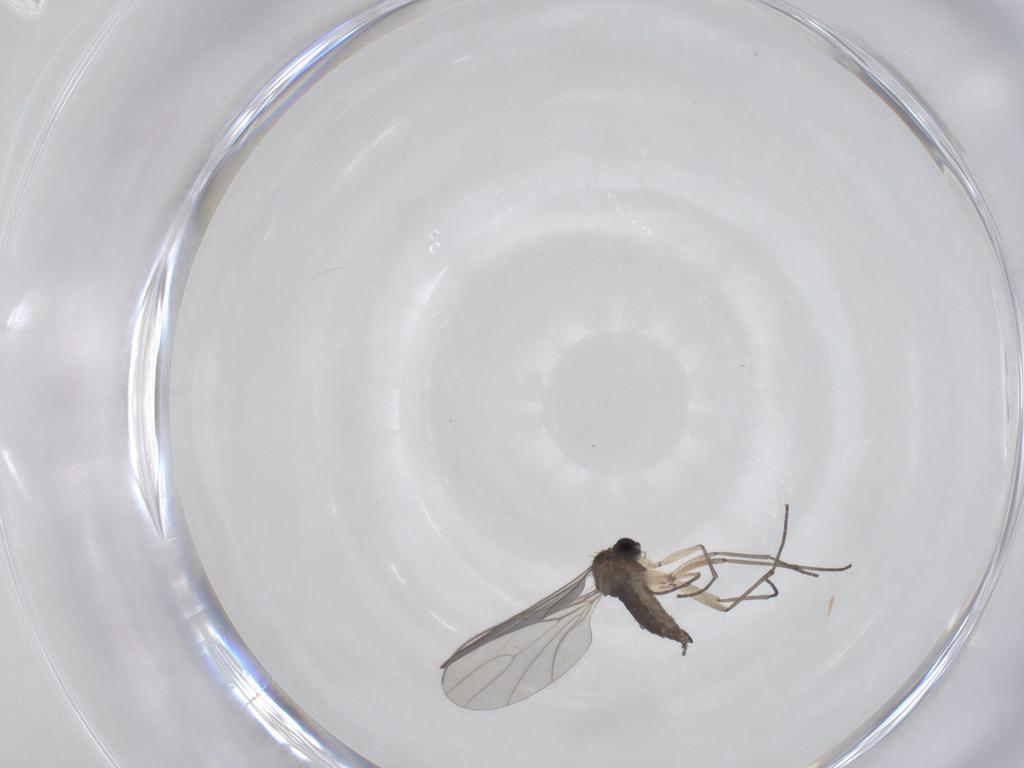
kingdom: Animalia
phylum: Arthropoda
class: Insecta
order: Diptera
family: Sciaridae
